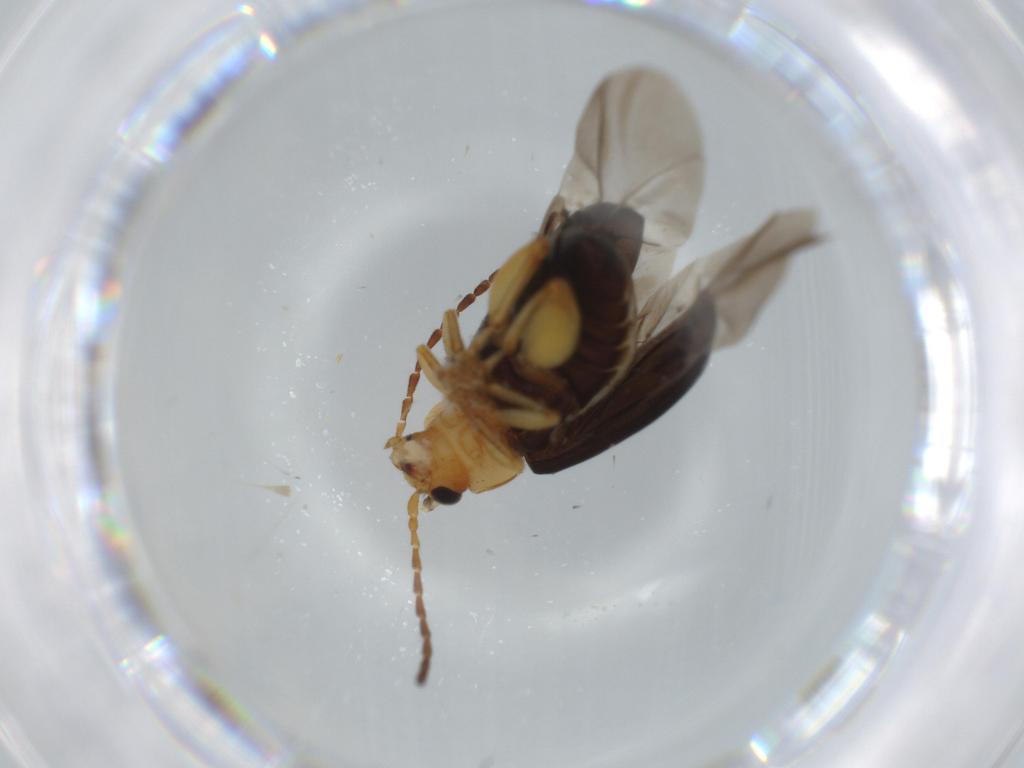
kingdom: Animalia
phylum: Arthropoda
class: Insecta
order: Coleoptera
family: Chrysomelidae
